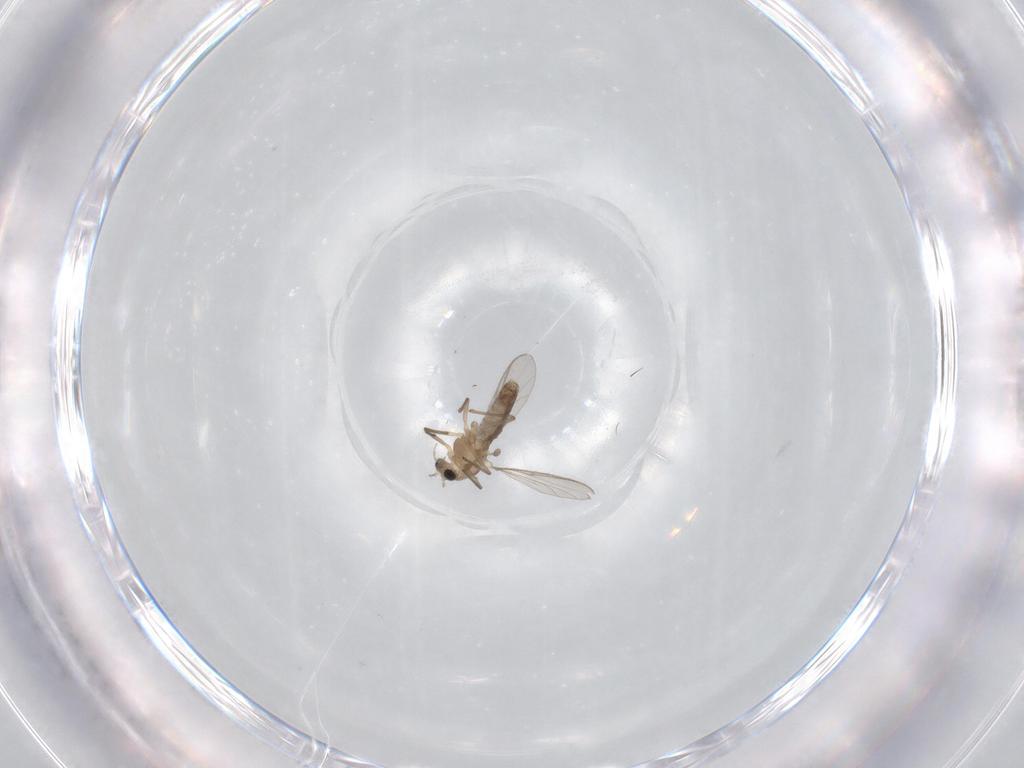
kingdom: Animalia
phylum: Arthropoda
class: Insecta
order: Diptera
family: Chironomidae
